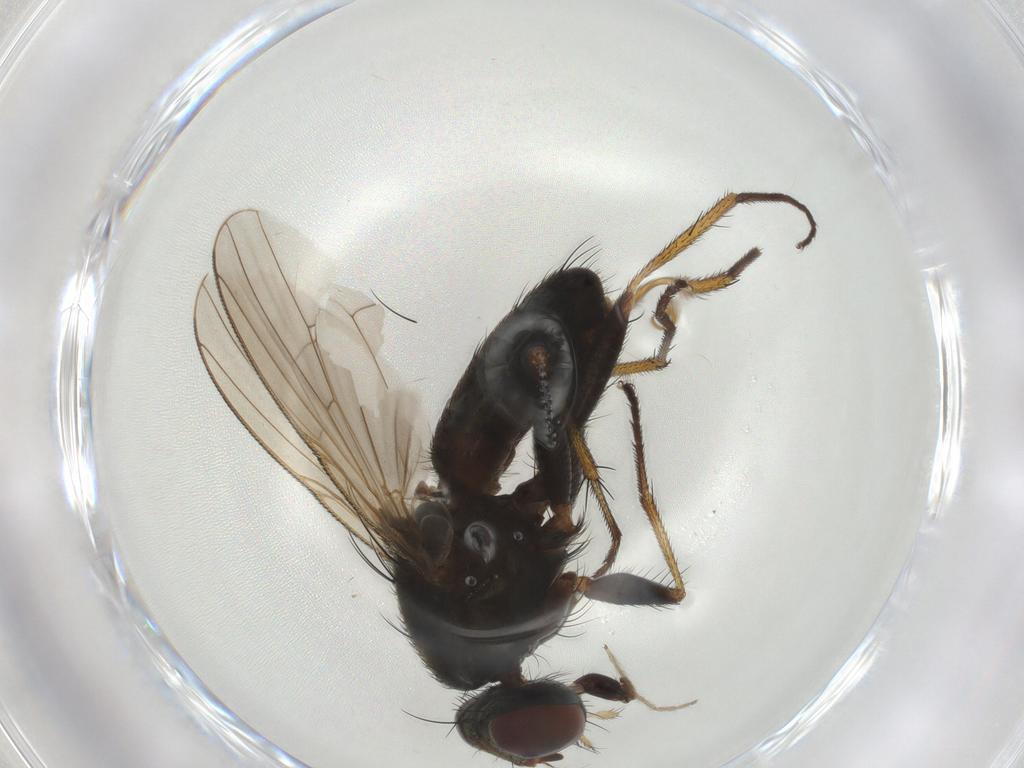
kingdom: Animalia
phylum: Arthropoda
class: Insecta
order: Diptera
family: Muscidae
